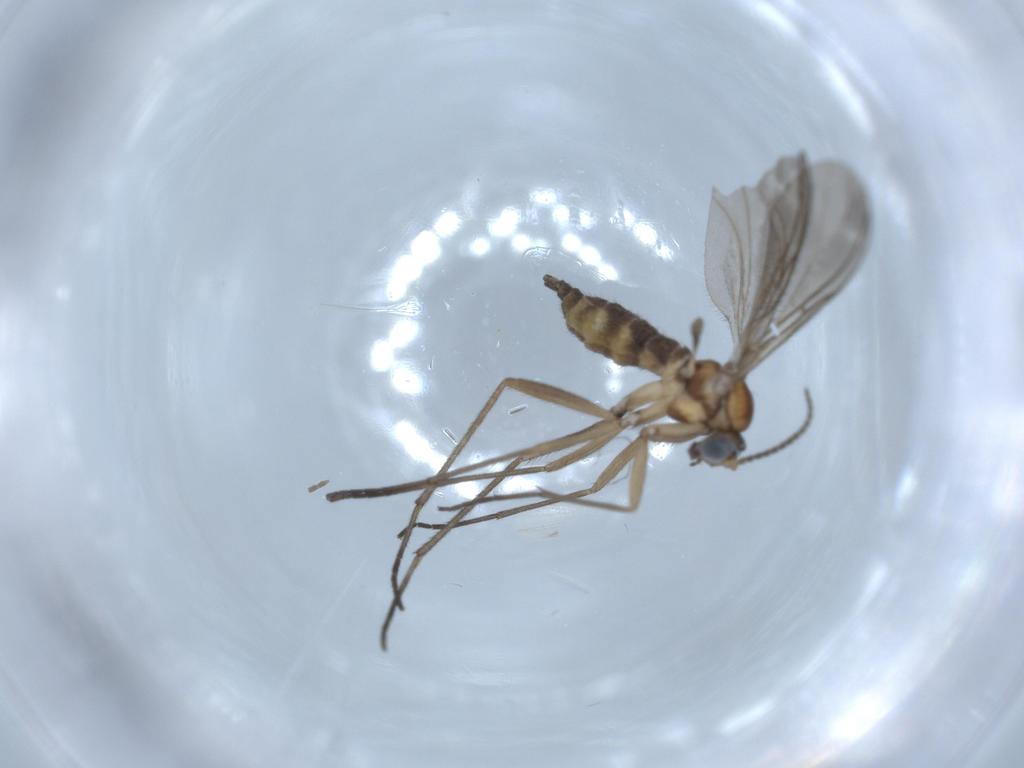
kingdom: Animalia
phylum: Arthropoda
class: Insecta
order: Diptera
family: Sciaridae
